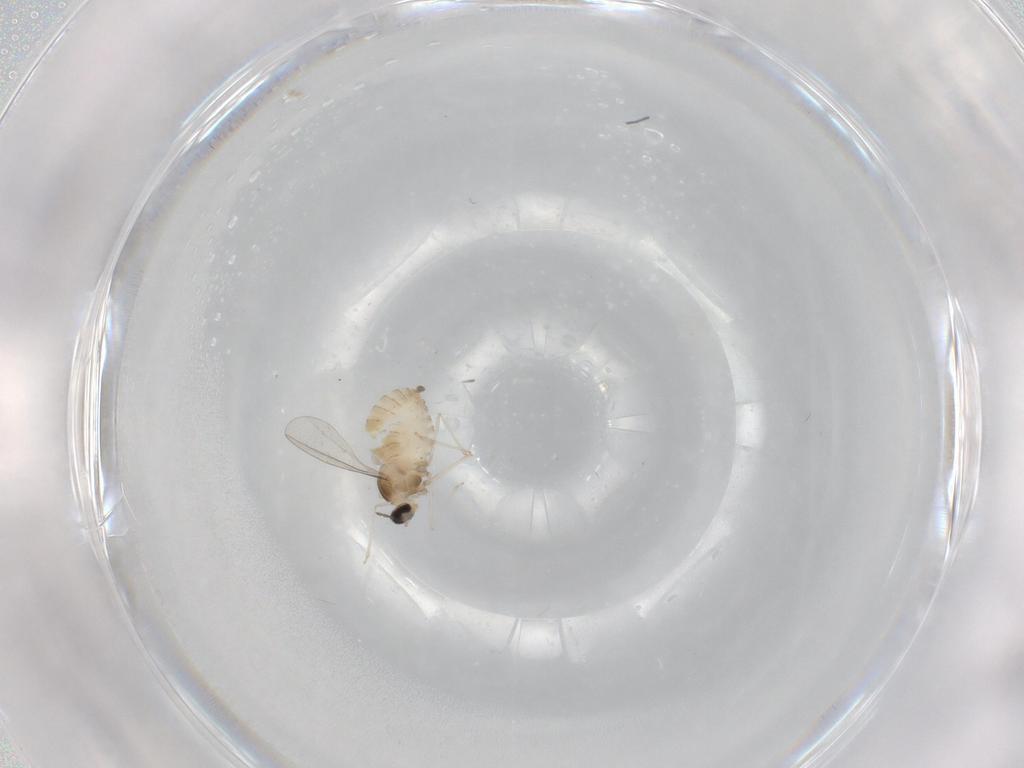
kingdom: Animalia
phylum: Arthropoda
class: Insecta
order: Diptera
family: Cecidomyiidae
